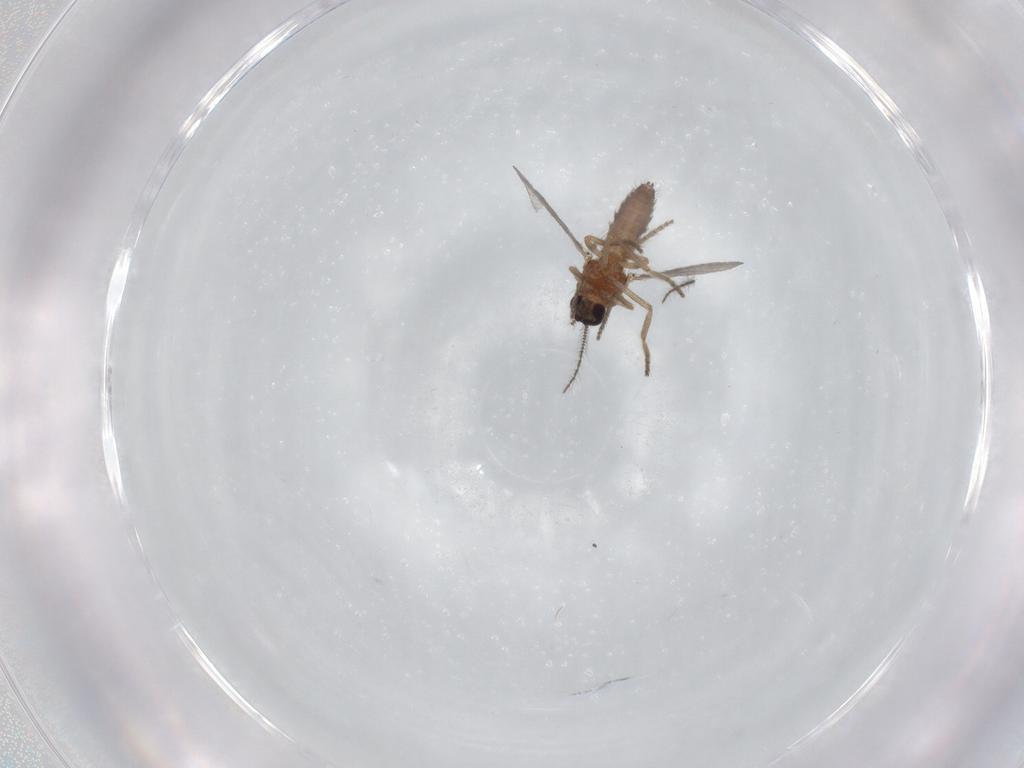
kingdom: Animalia
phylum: Arthropoda
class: Insecta
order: Diptera
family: Ceratopogonidae
